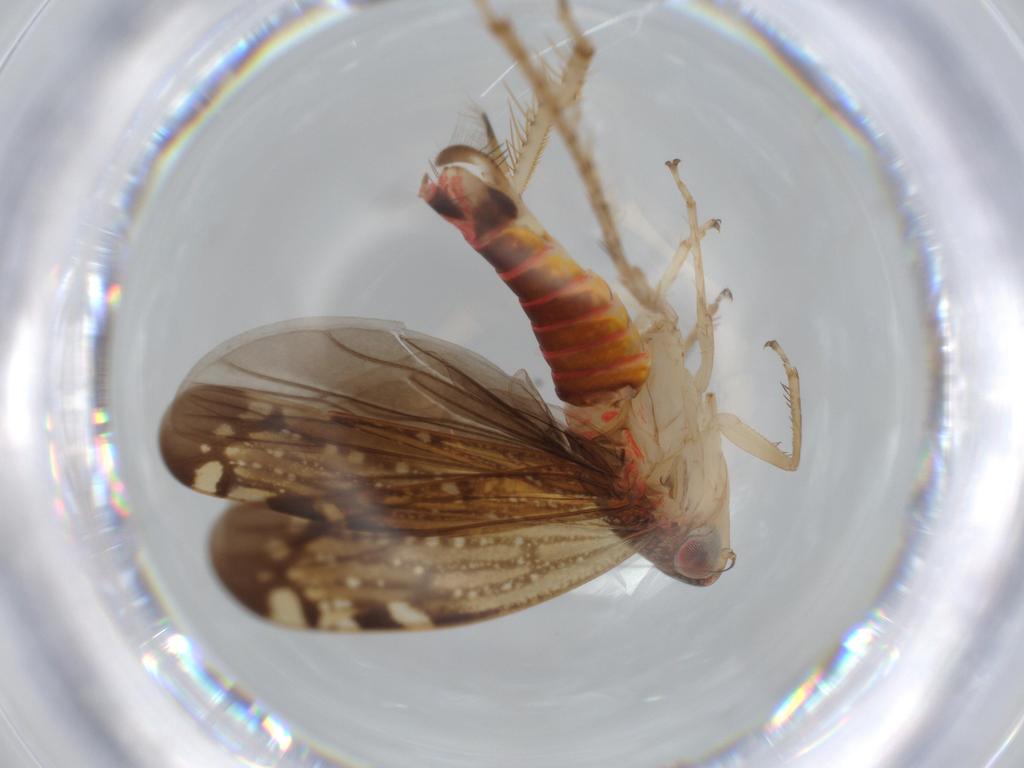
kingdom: Animalia
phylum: Arthropoda
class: Insecta
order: Hemiptera
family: Cicadellidae
